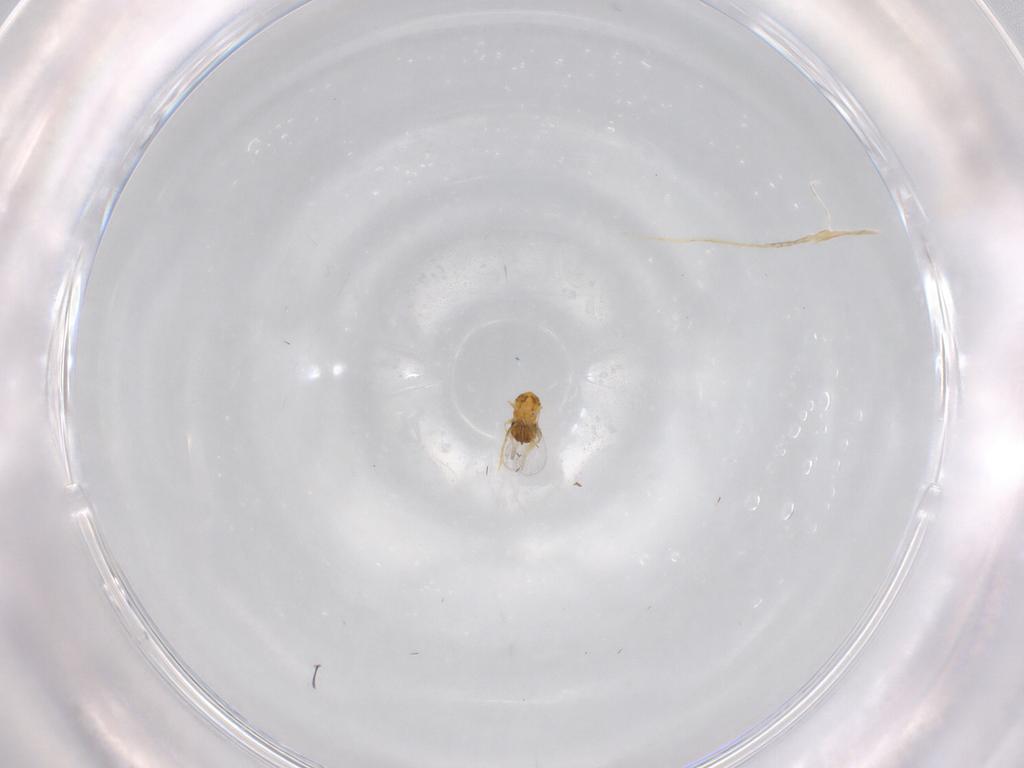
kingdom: Animalia
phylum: Arthropoda
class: Insecta
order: Hymenoptera
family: Trichogrammatidae
